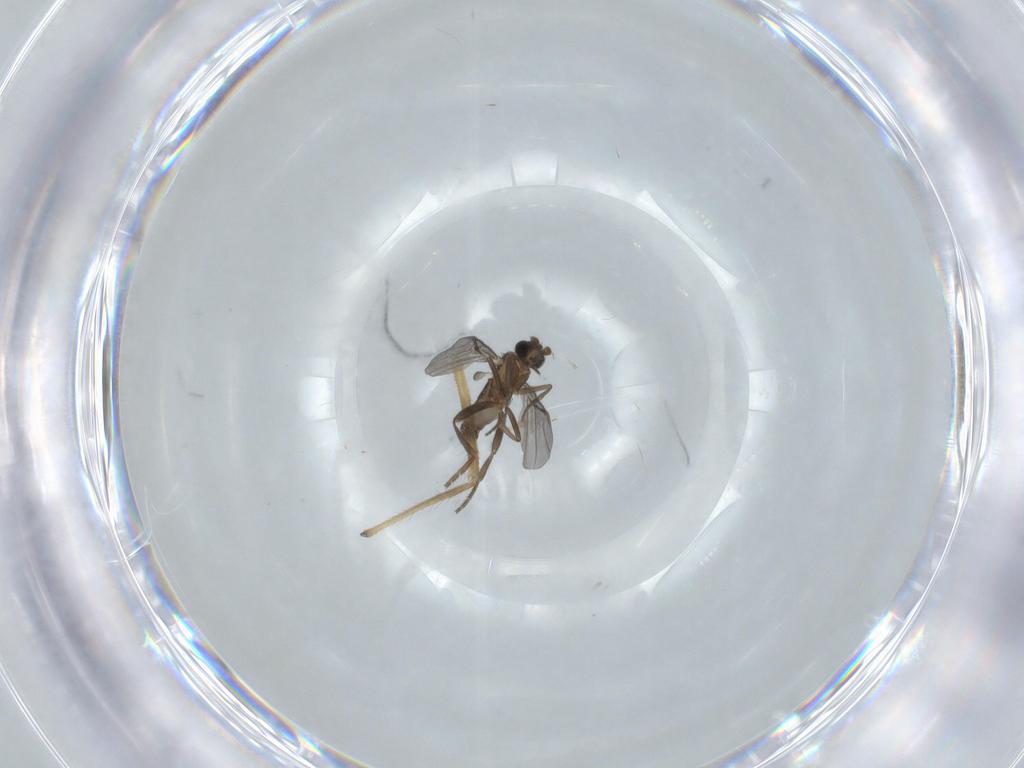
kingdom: Animalia
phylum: Arthropoda
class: Insecta
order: Diptera
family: Phoridae
